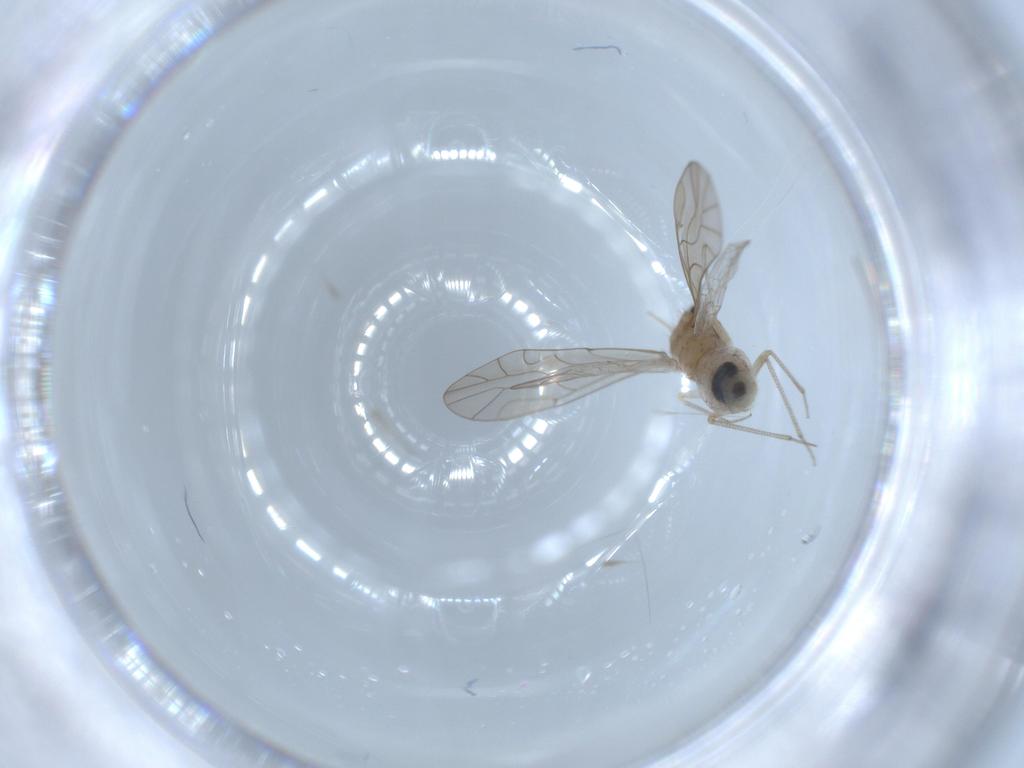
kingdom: Animalia
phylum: Arthropoda
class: Insecta
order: Psocodea
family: Lachesillidae
